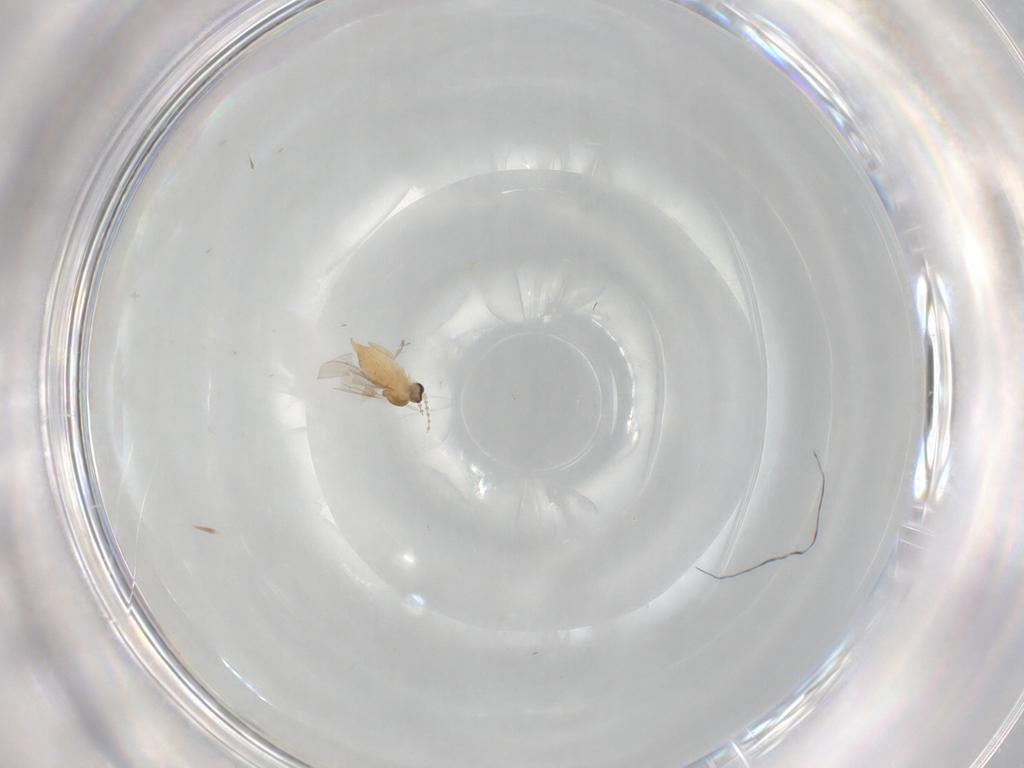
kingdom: Animalia
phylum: Arthropoda
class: Insecta
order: Diptera
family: Cecidomyiidae
